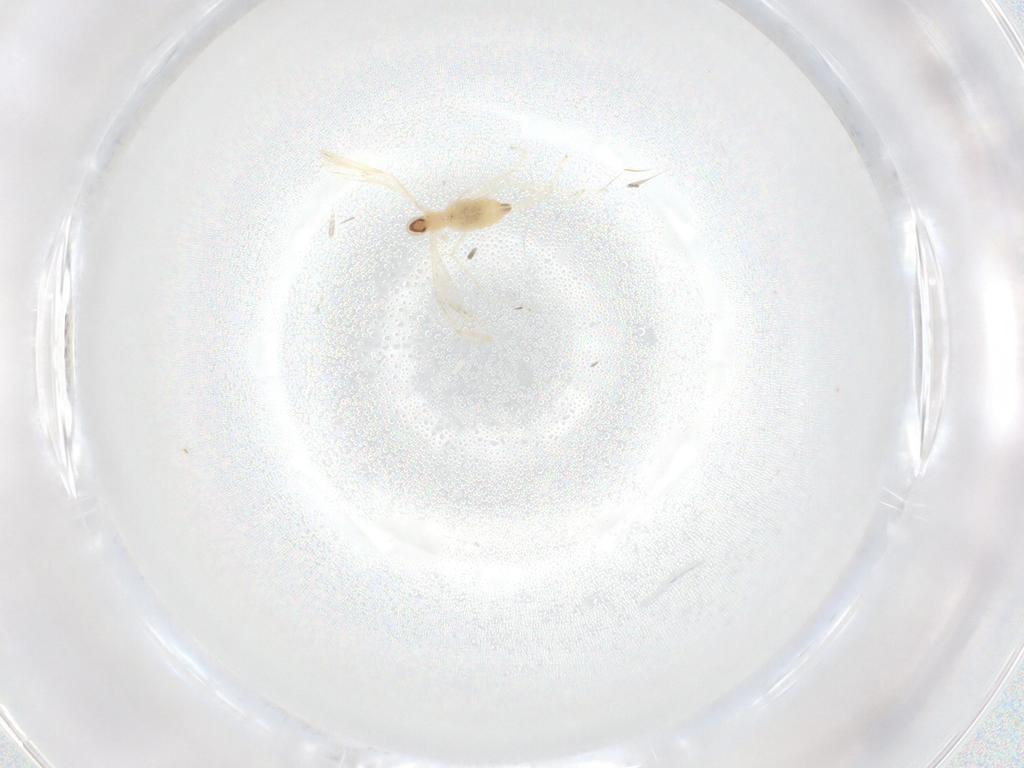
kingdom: Animalia
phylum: Arthropoda
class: Insecta
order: Diptera
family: Cecidomyiidae
